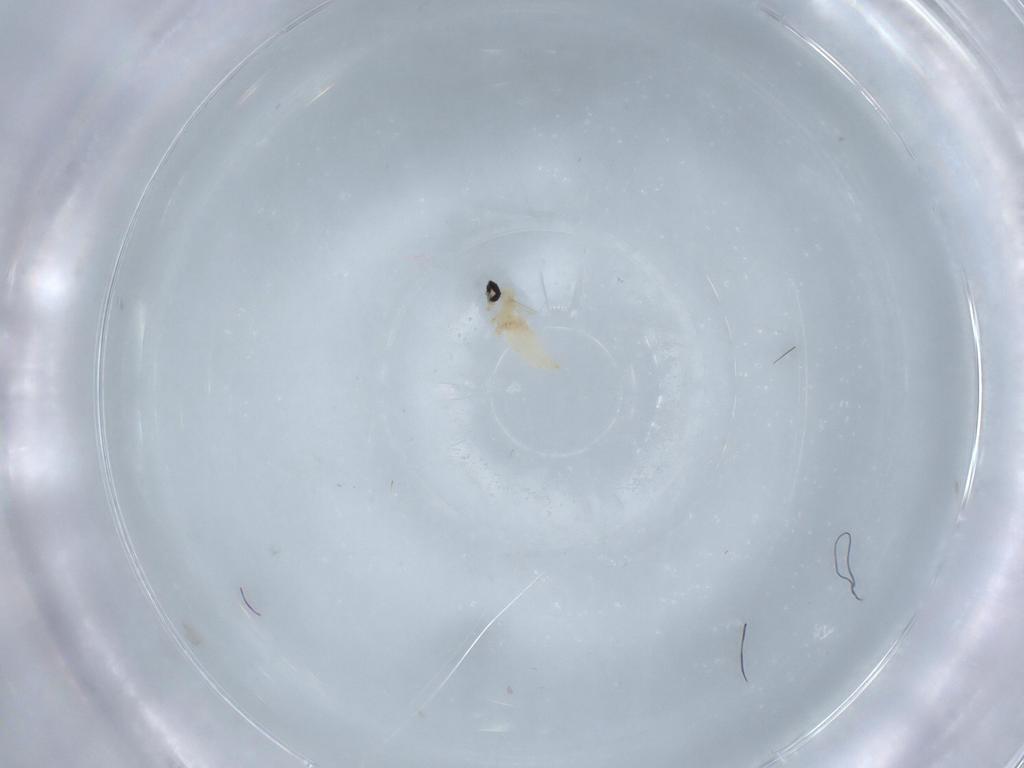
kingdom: Animalia
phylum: Arthropoda
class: Insecta
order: Diptera
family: Cecidomyiidae
